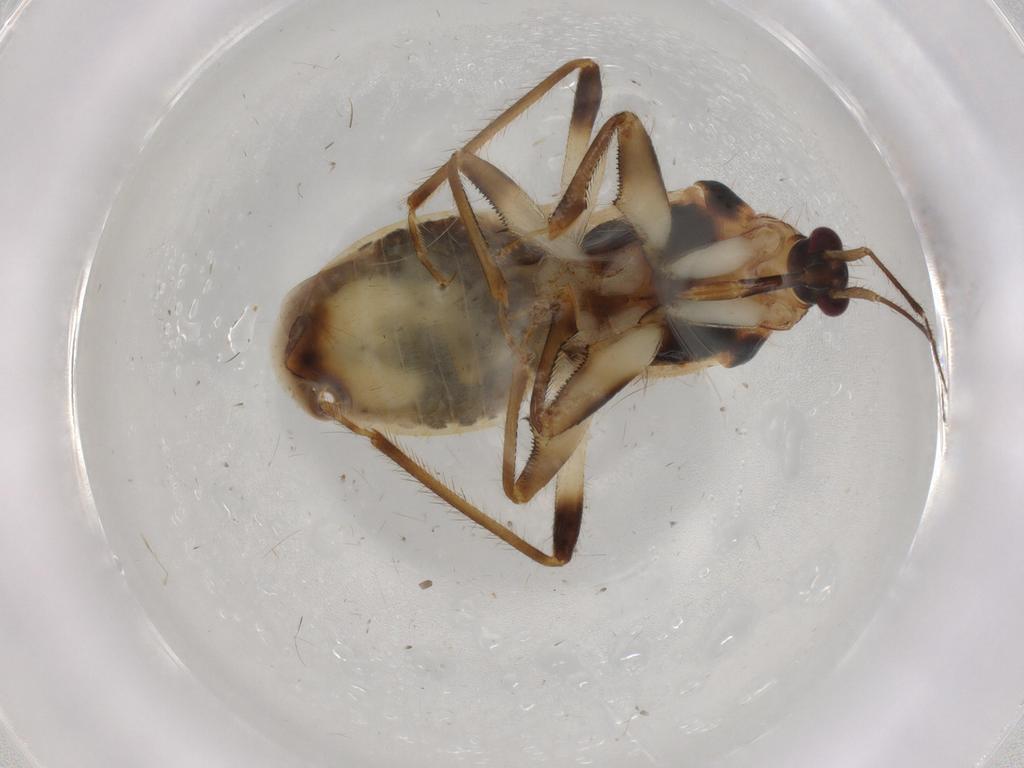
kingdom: Animalia
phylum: Arthropoda
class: Insecta
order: Hemiptera
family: Nabidae
